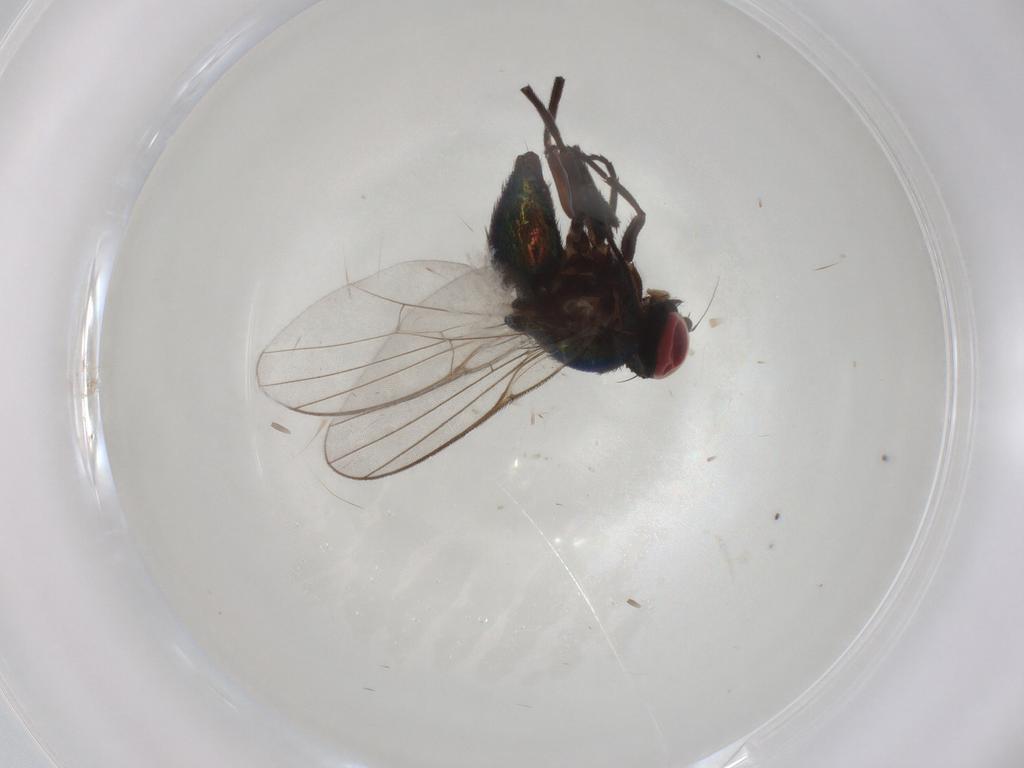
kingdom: Animalia
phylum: Arthropoda
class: Insecta
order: Diptera
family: Agromyzidae
